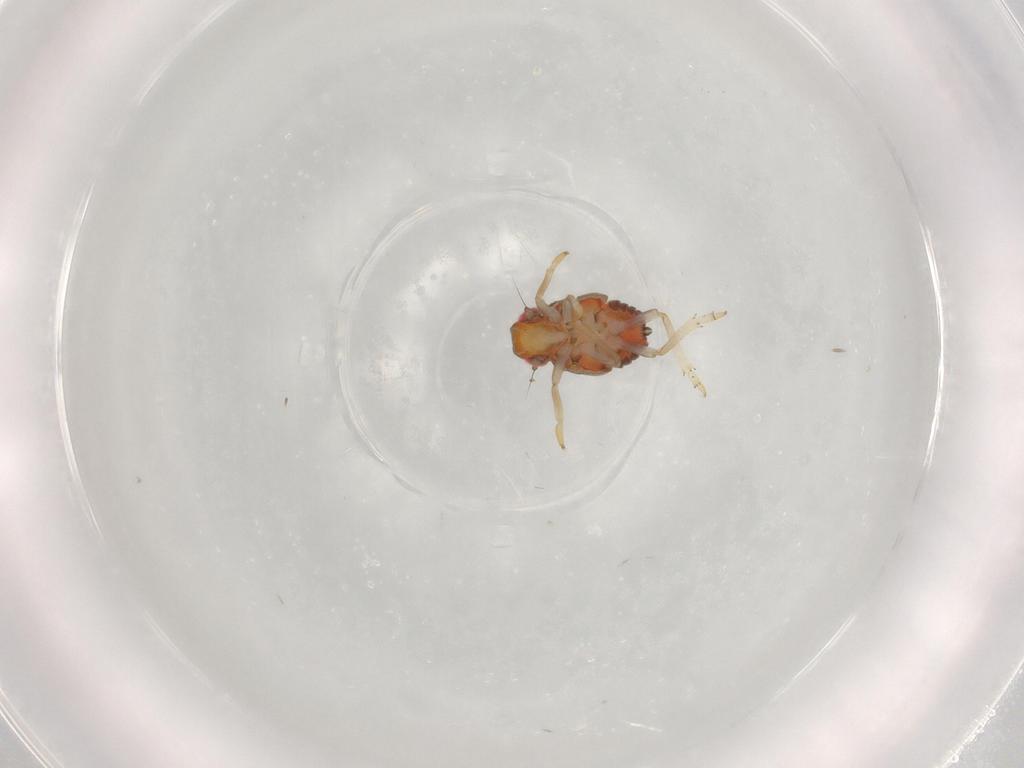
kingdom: Animalia
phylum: Arthropoda
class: Insecta
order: Hemiptera
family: Issidae
